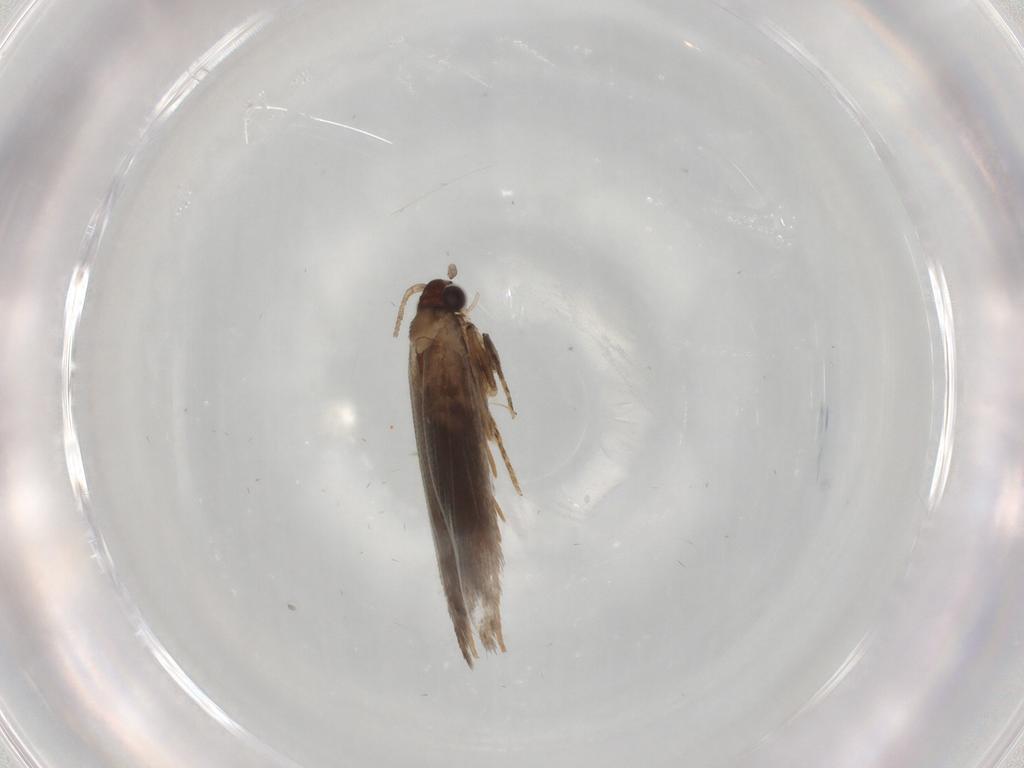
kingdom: Animalia
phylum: Arthropoda
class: Insecta
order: Lepidoptera
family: Tineidae
